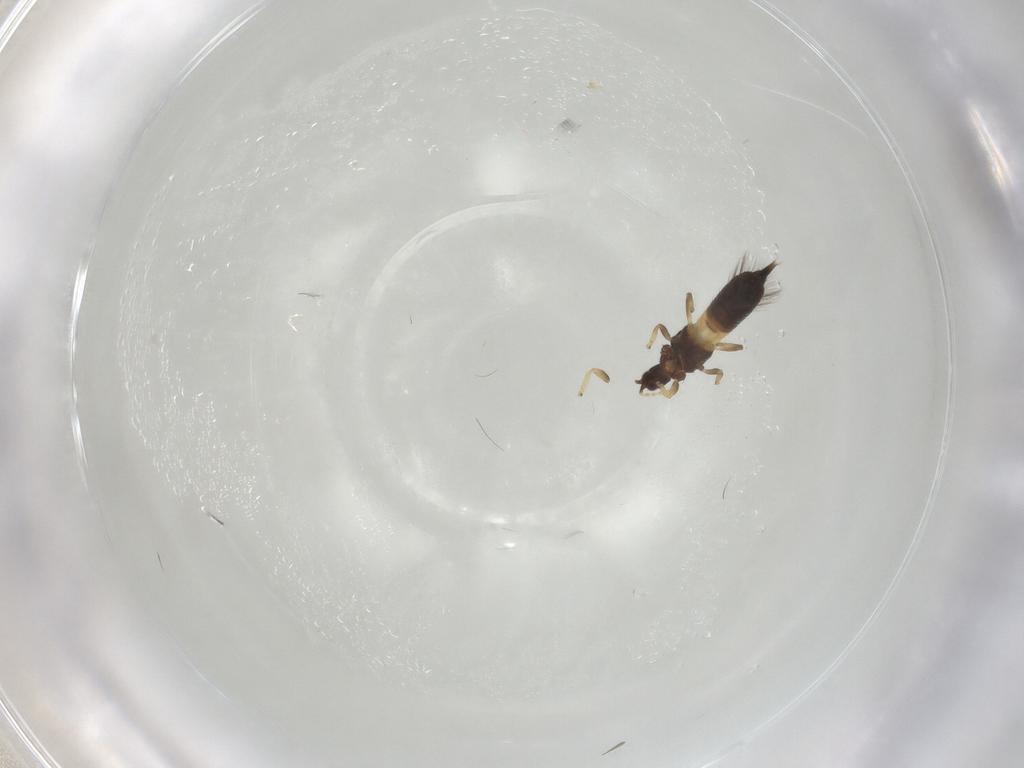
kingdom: Animalia
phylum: Arthropoda
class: Insecta
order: Thysanoptera
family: Phlaeothripidae
